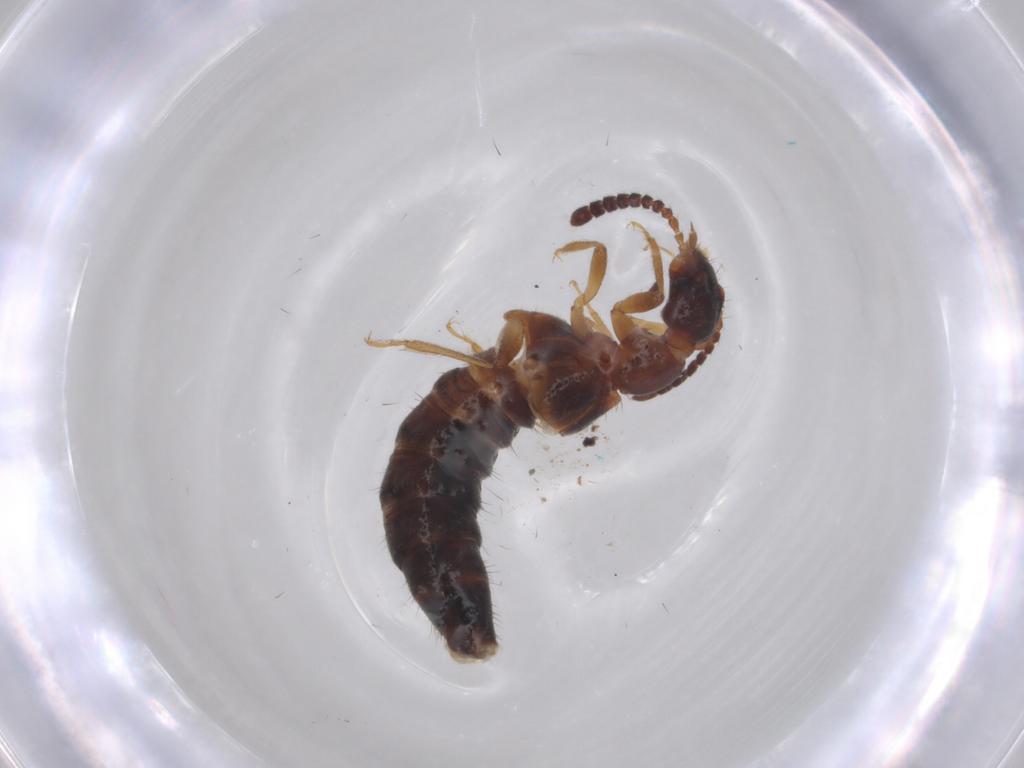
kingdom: Animalia
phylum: Arthropoda
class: Insecta
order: Coleoptera
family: Staphylinidae
